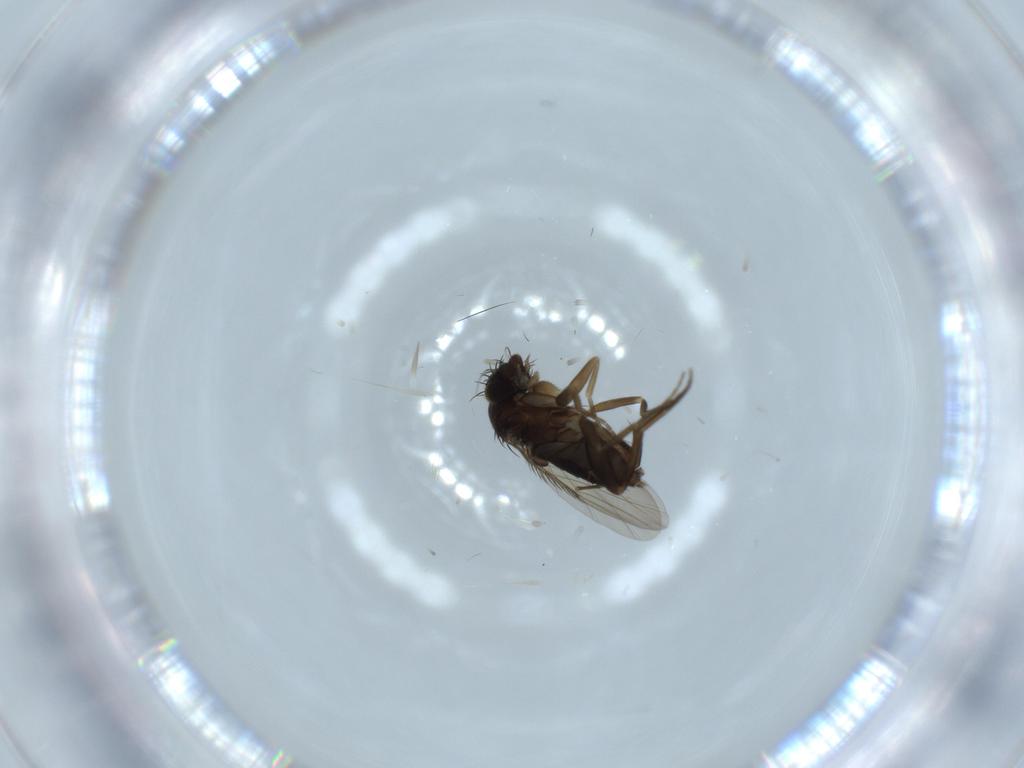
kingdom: Animalia
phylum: Arthropoda
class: Insecta
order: Diptera
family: Phoridae
